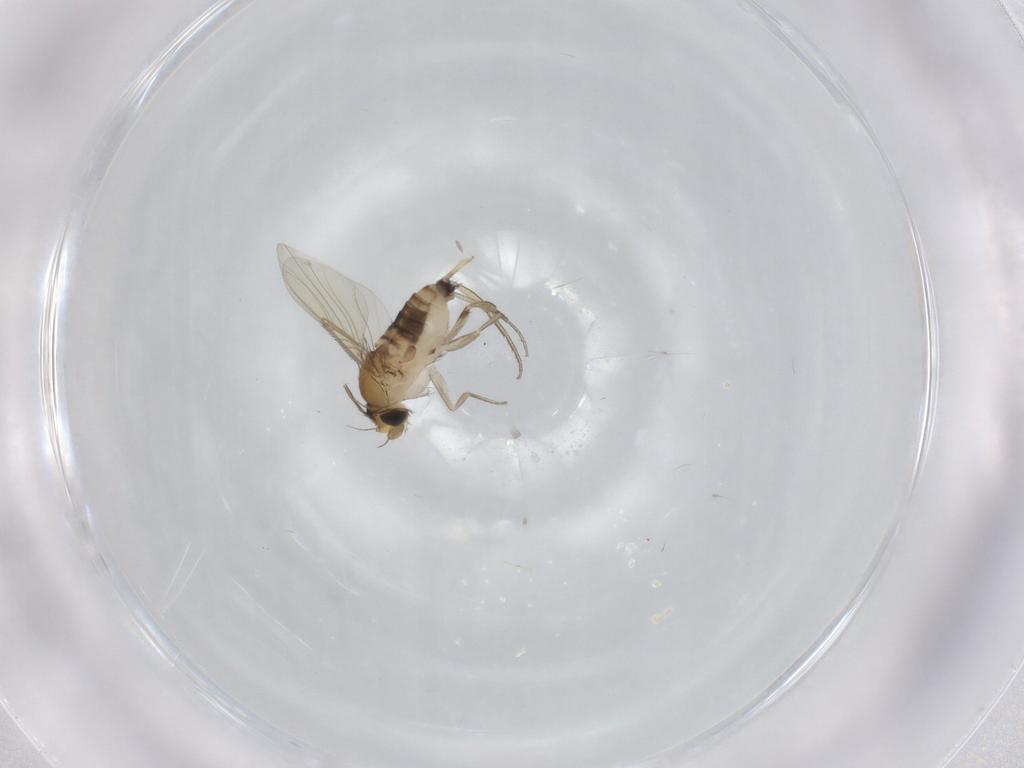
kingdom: Animalia
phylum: Arthropoda
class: Insecta
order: Diptera
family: Phoridae
